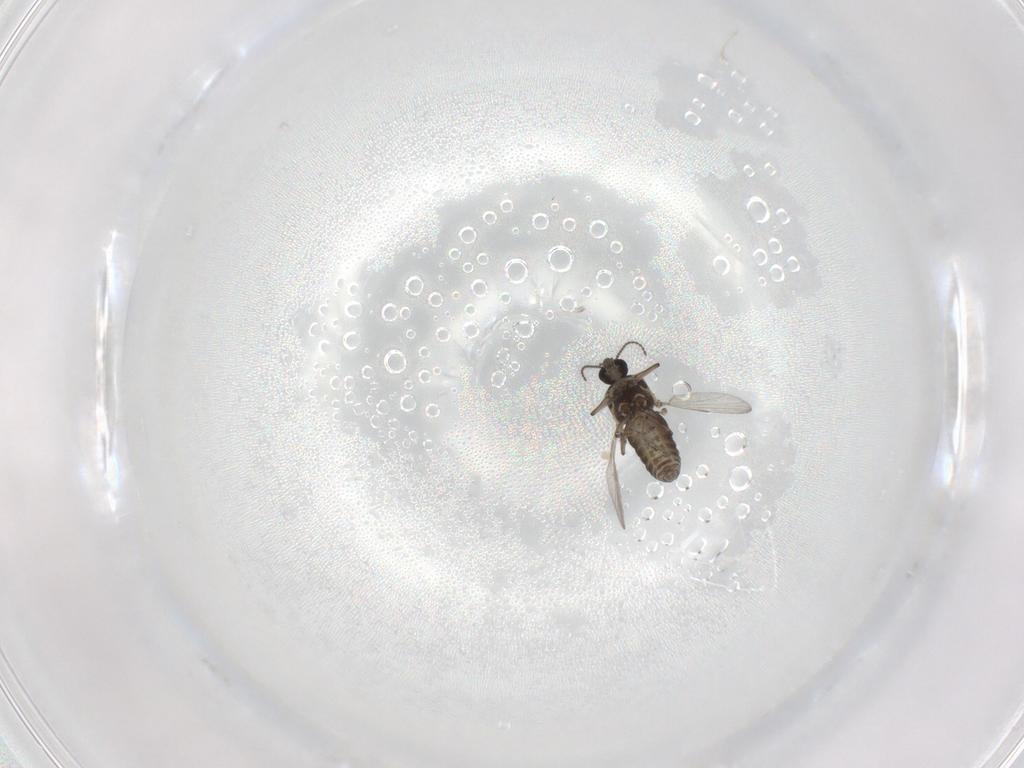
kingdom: Animalia
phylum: Arthropoda
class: Insecta
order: Diptera
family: Ceratopogonidae
